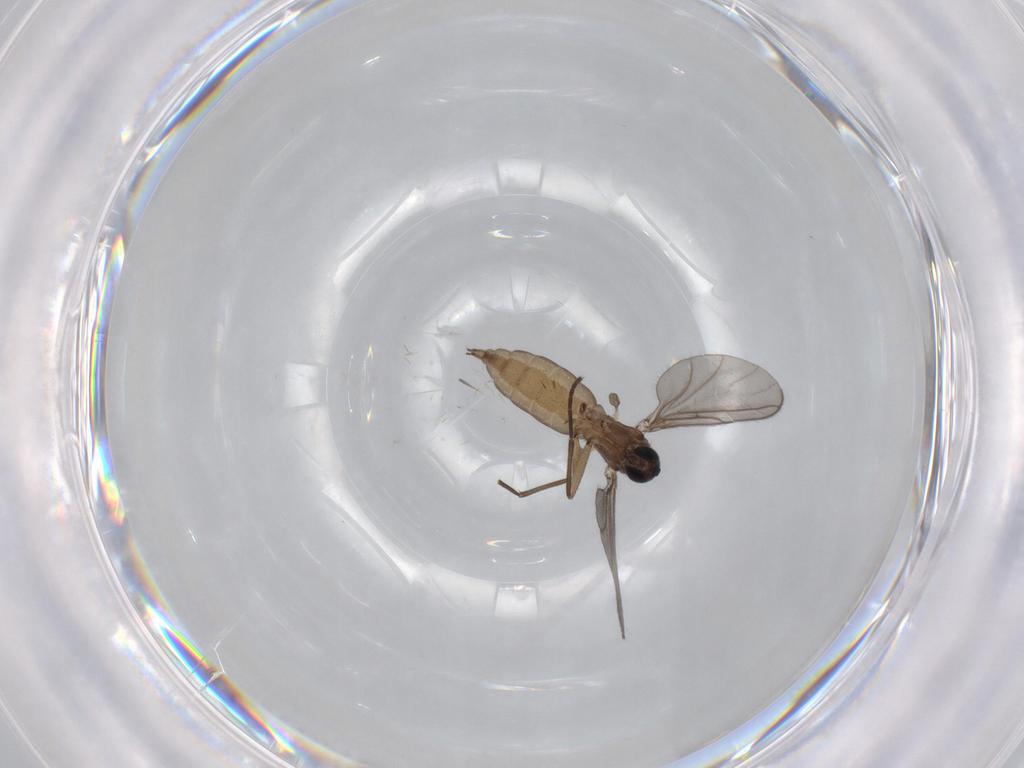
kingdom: Animalia
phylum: Arthropoda
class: Insecta
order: Diptera
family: Sciaridae
